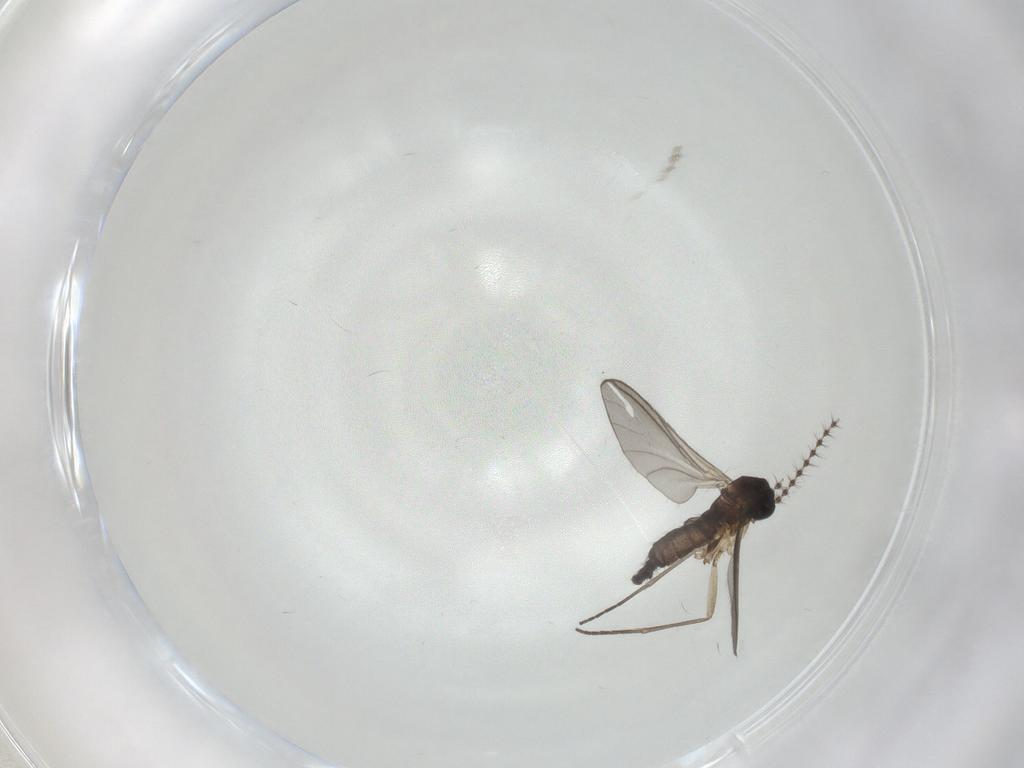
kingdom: Animalia
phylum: Arthropoda
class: Insecta
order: Diptera
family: Sciaridae
